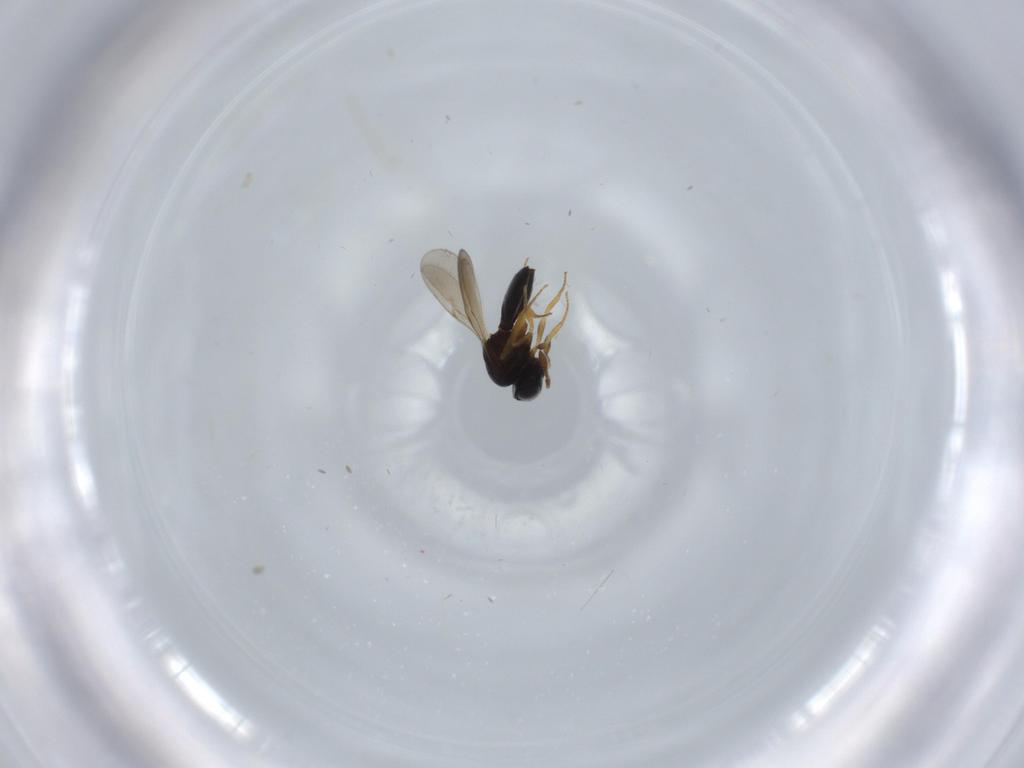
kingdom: Animalia
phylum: Arthropoda
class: Insecta
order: Hymenoptera
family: Scelionidae
